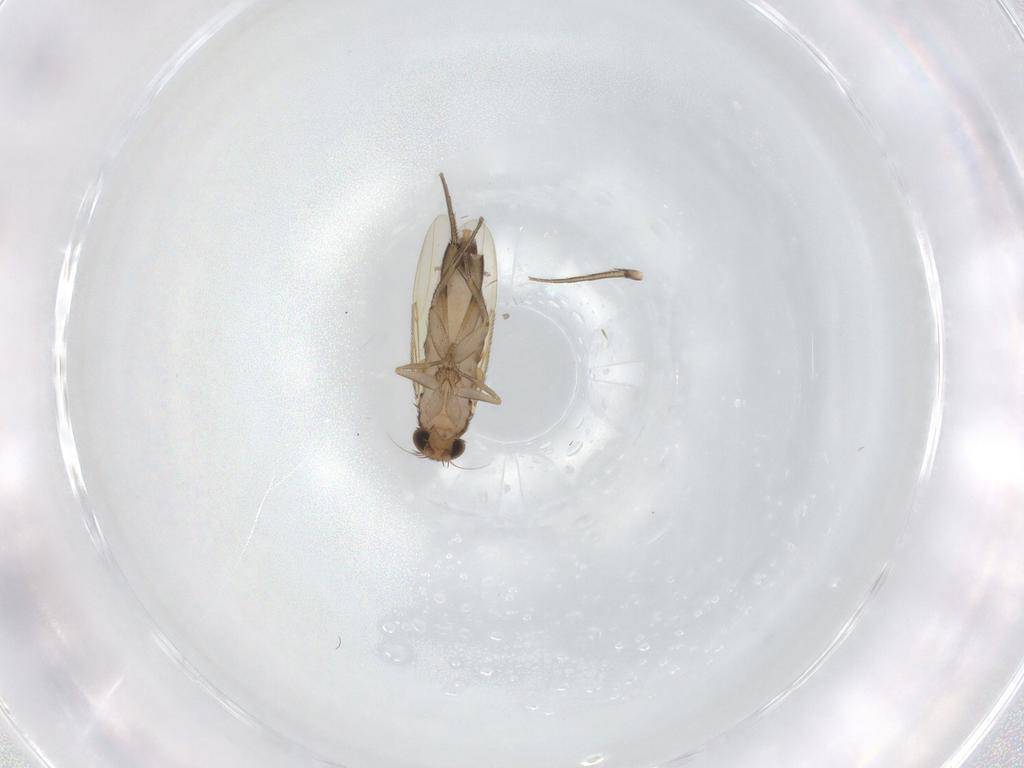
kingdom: Animalia
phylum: Arthropoda
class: Insecta
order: Diptera
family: Phoridae
